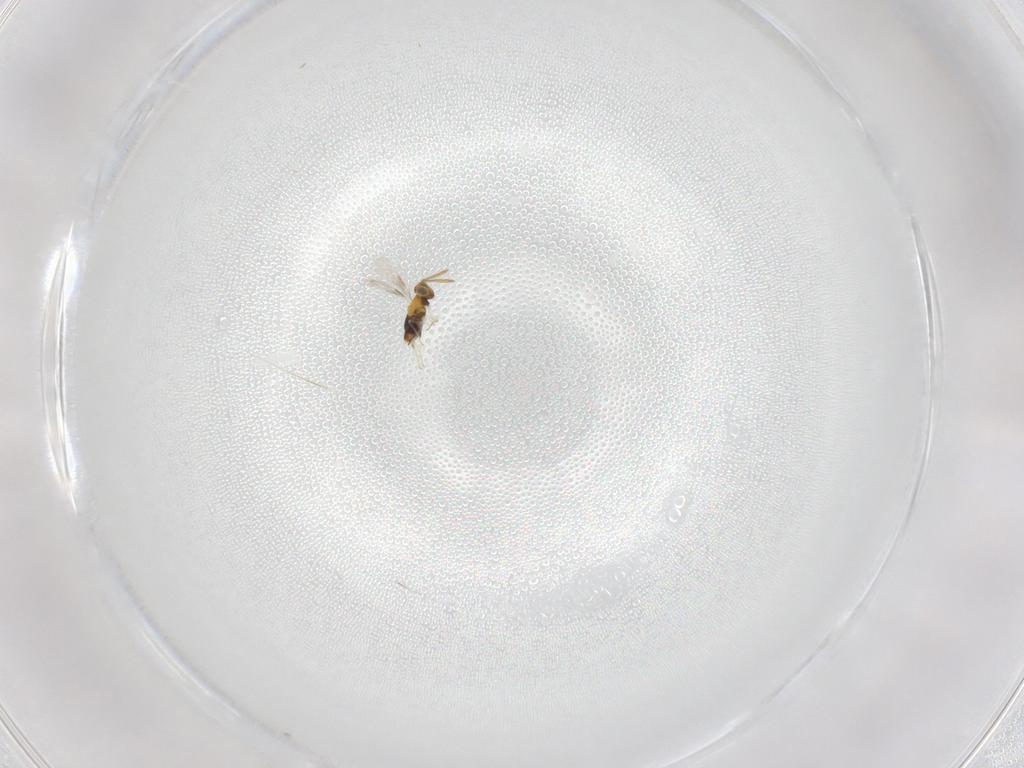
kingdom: Animalia
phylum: Arthropoda
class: Insecta
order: Hymenoptera
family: Aphelinidae
